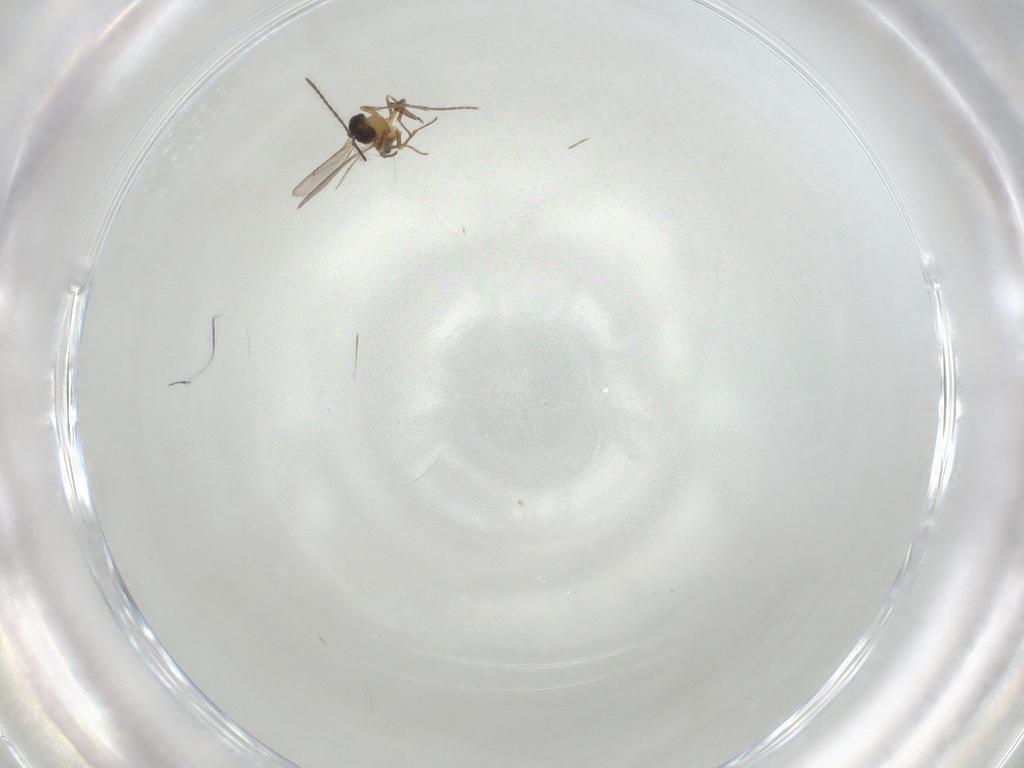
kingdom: Animalia
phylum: Arthropoda
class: Insecta
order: Hymenoptera
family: Eupelmidae
